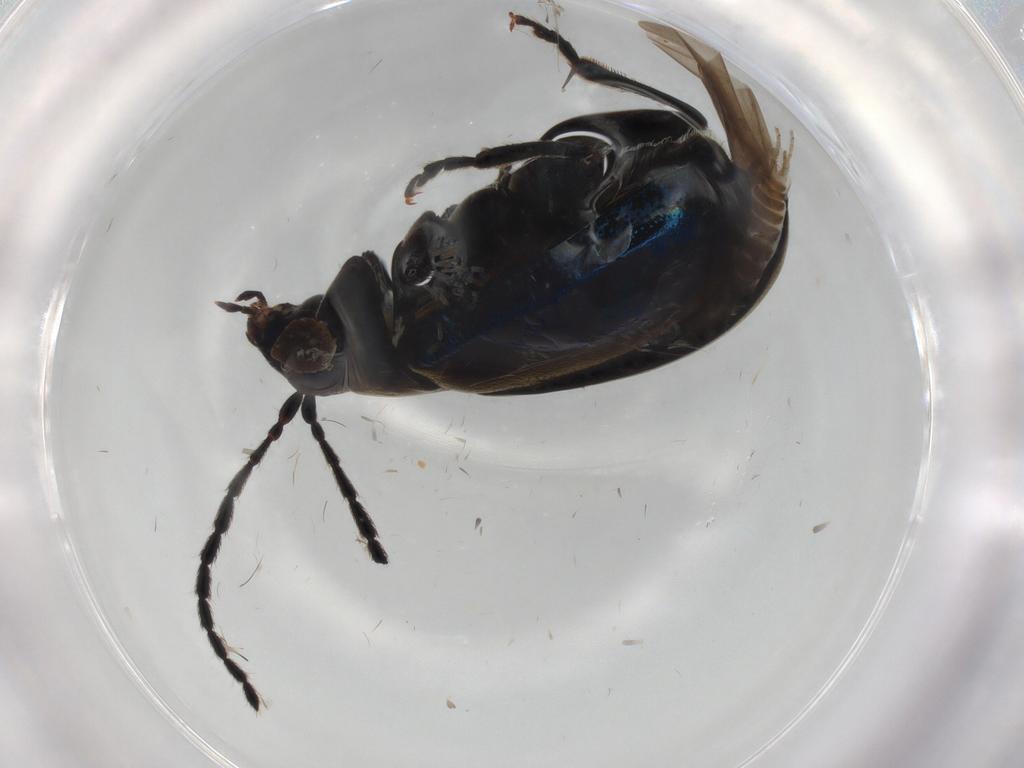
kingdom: Animalia
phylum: Arthropoda
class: Insecta
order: Coleoptera
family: Chrysomelidae
